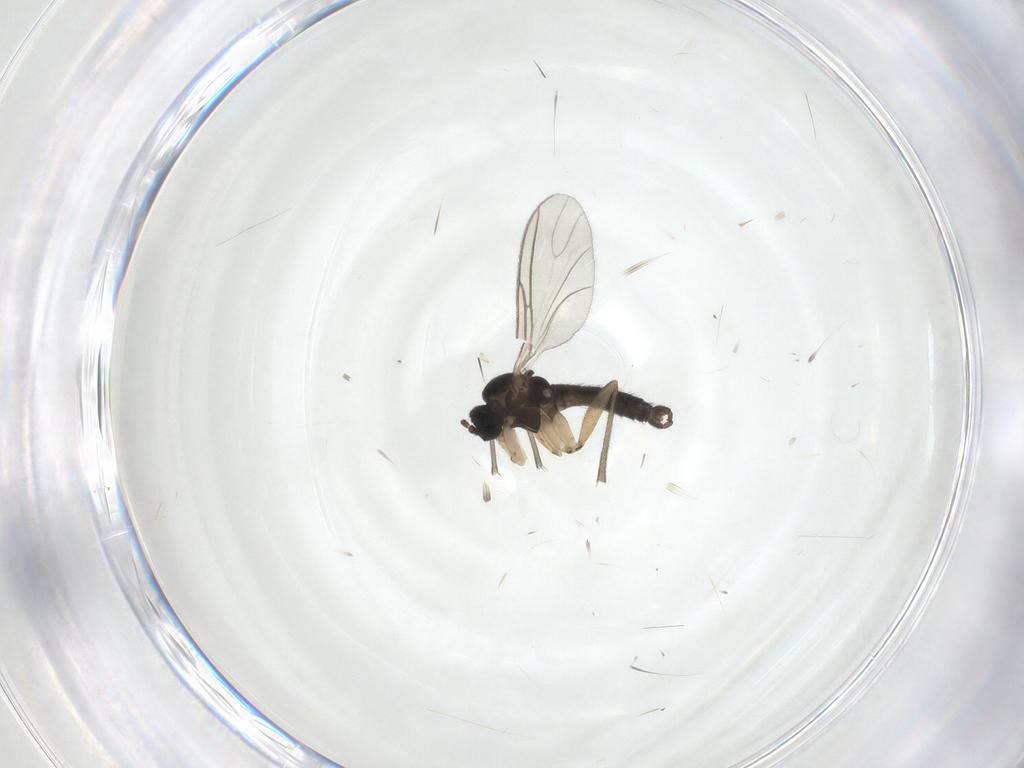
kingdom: Animalia
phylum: Arthropoda
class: Insecta
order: Diptera
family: Sciaridae
